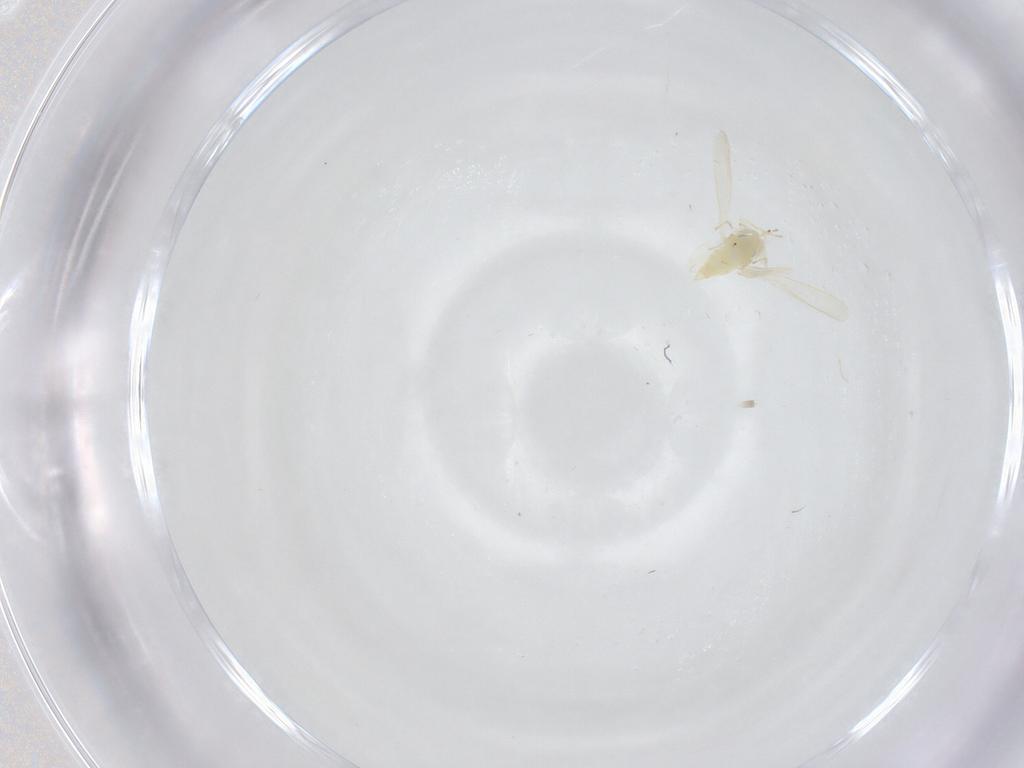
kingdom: Animalia
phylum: Arthropoda
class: Insecta
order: Hemiptera
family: Aleyrodidae
